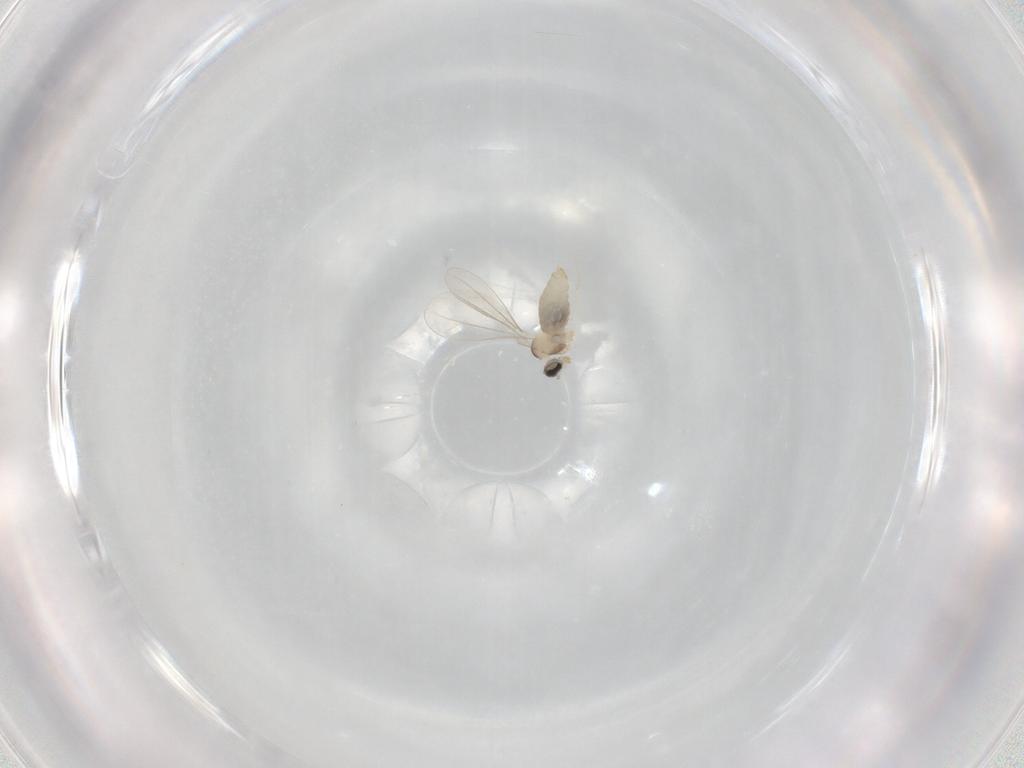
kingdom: Animalia
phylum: Arthropoda
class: Insecta
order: Diptera
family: Cecidomyiidae
